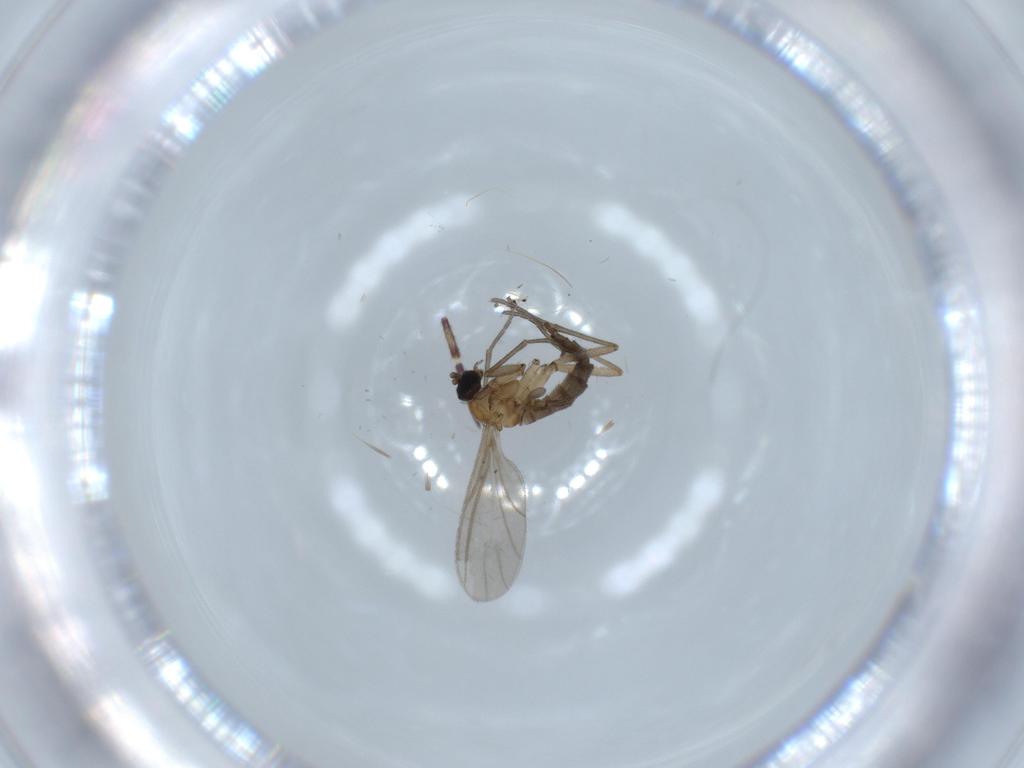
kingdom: Animalia
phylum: Arthropoda
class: Insecta
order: Diptera
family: Sciaridae
